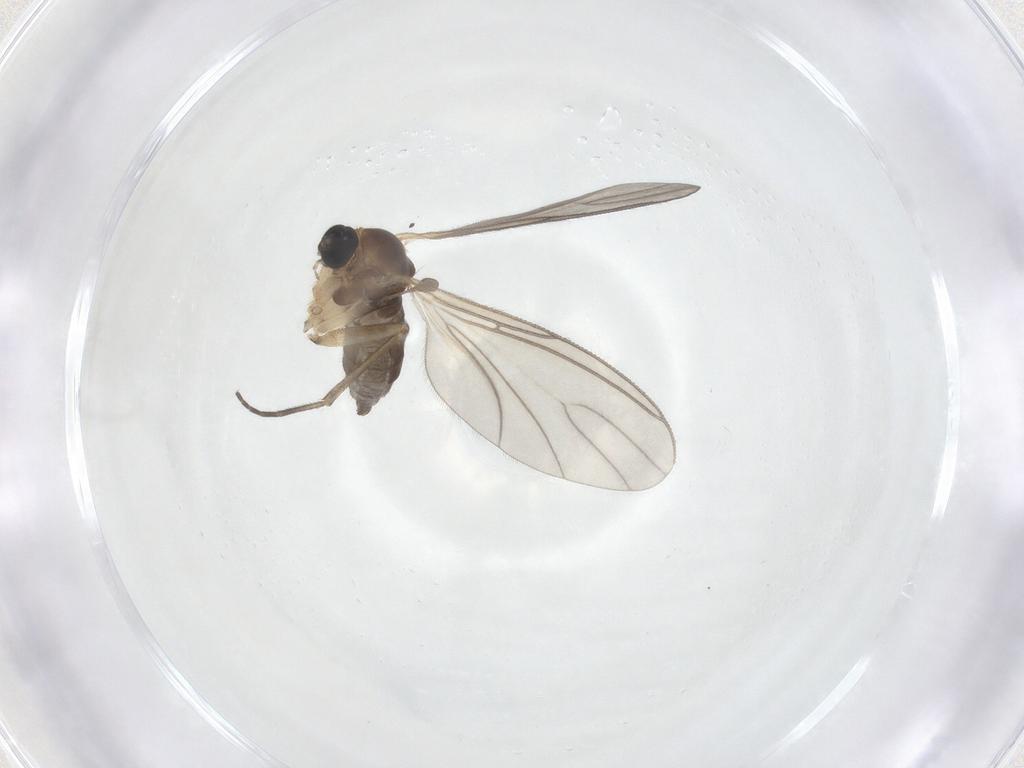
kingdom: Animalia
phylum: Arthropoda
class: Insecta
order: Diptera
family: Sciaridae
